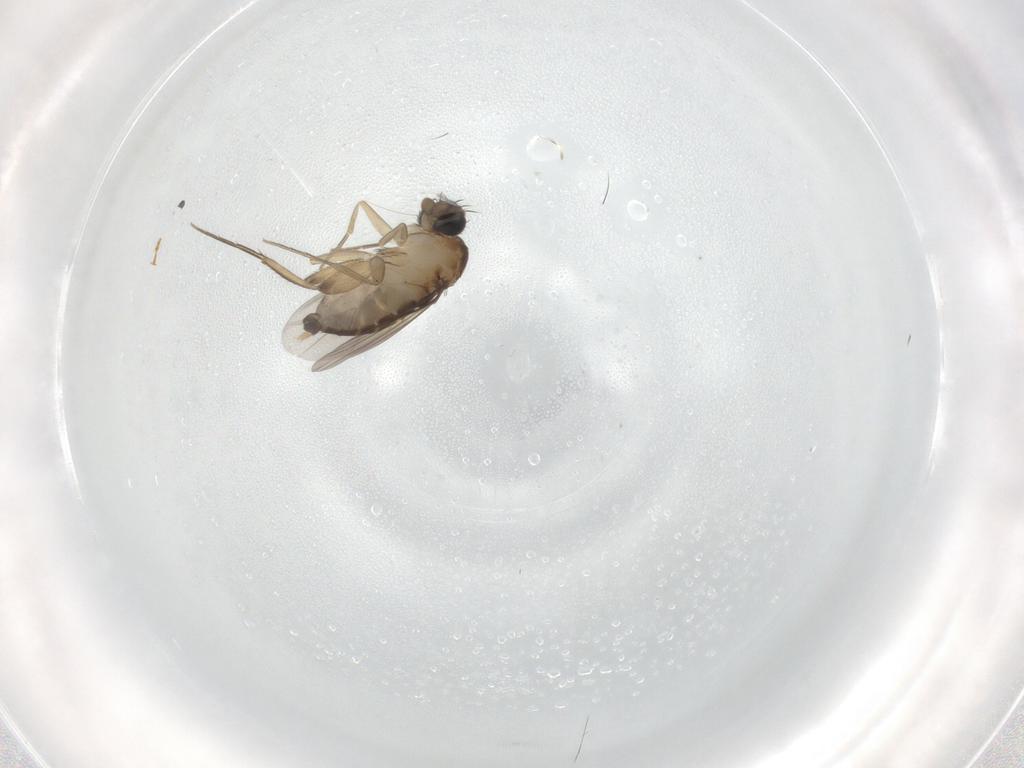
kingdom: Animalia
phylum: Arthropoda
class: Insecta
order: Diptera
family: Phoridae
